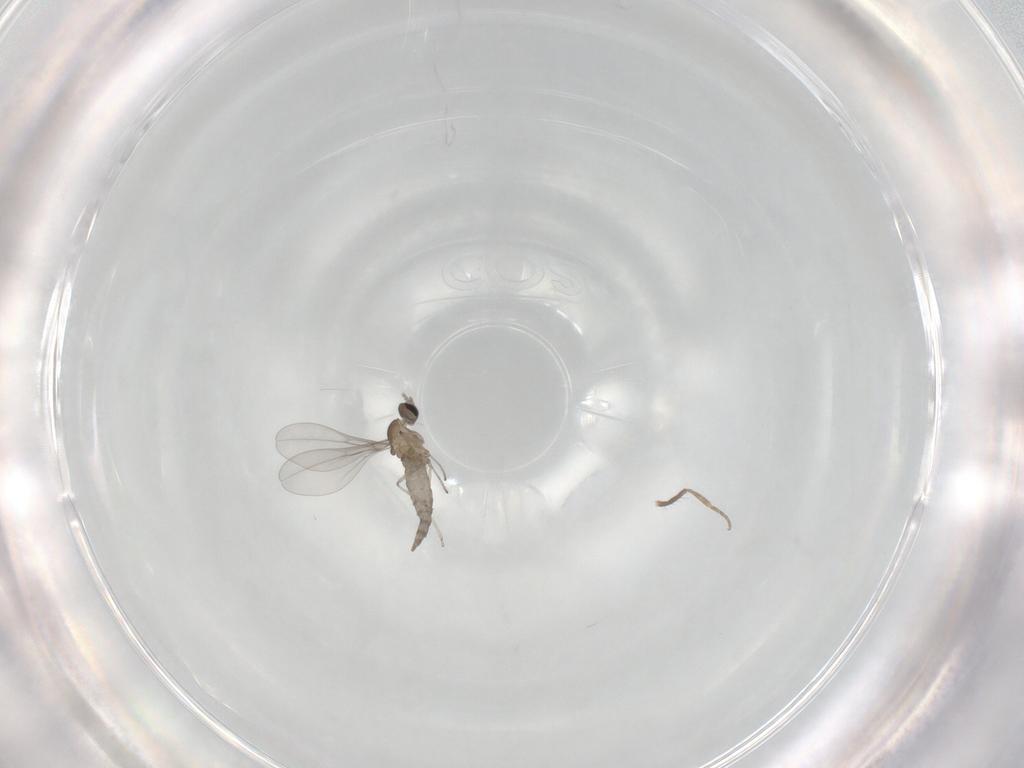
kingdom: Animalia
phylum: Arthropoda
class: Insecta
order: Diptera
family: Cecidomyiidae
